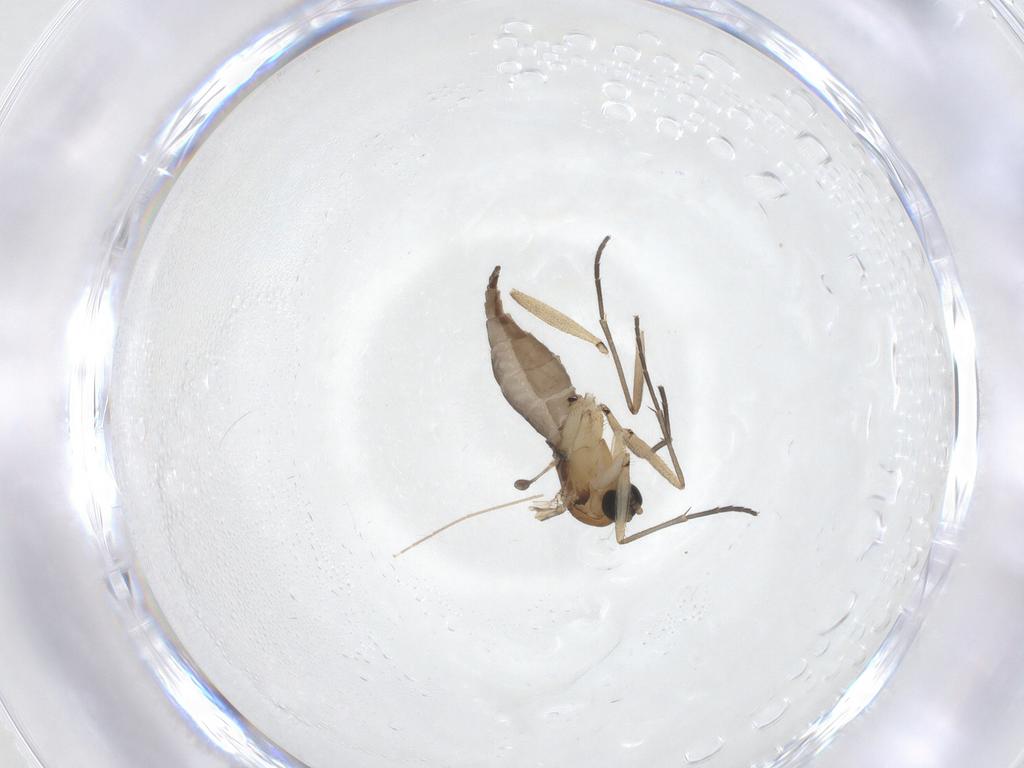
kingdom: Animalia
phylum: Arthropoda
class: Insecta
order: Diptera
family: Sciaridae
